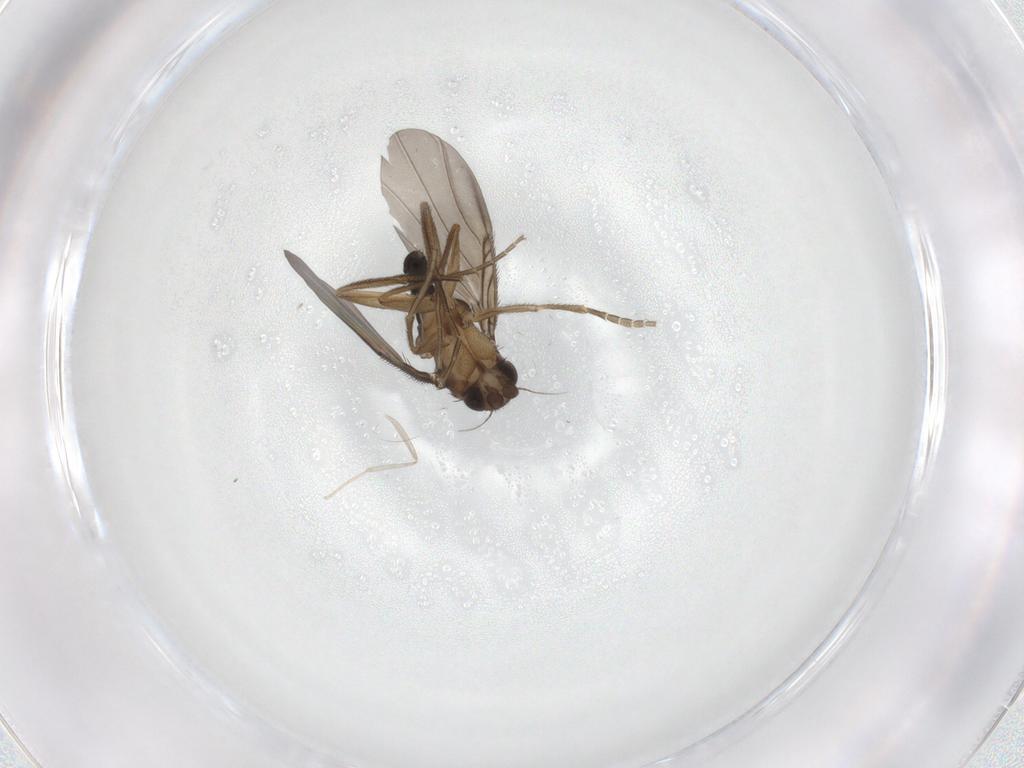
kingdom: Animalia
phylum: Arthropoda
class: Insecta
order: Diptera
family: Cecidomyiidae
